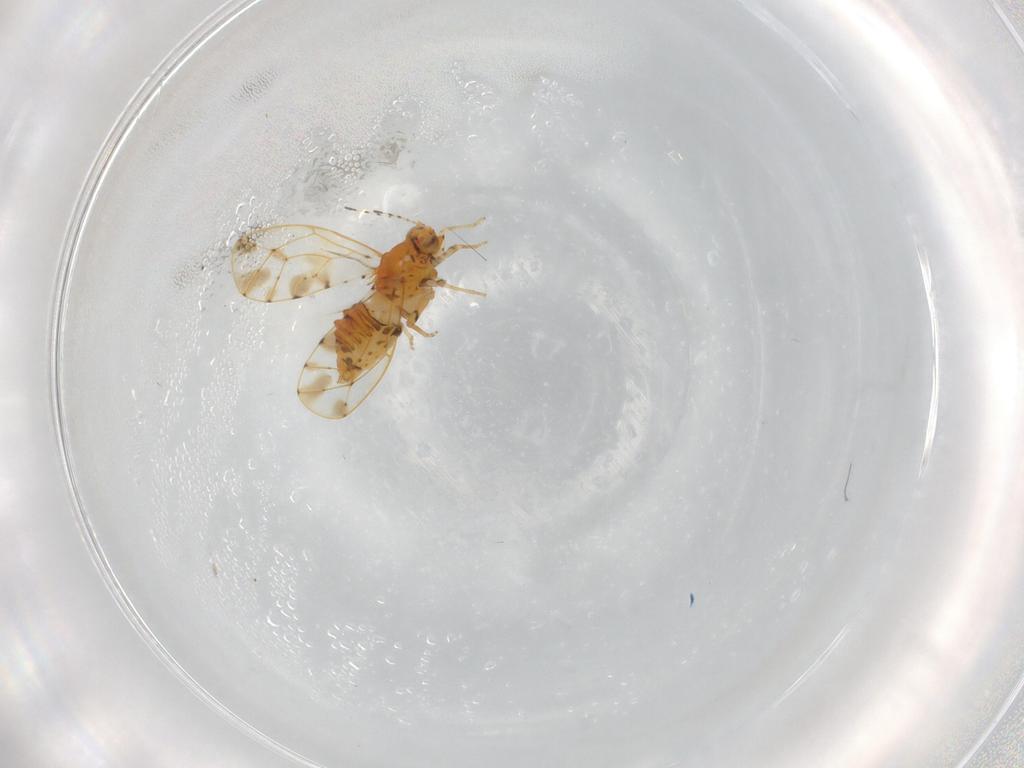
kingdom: Animalia
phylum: Arthropoda
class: Insecta
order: Hemiptera
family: Psylloidea_incertae_sedis
